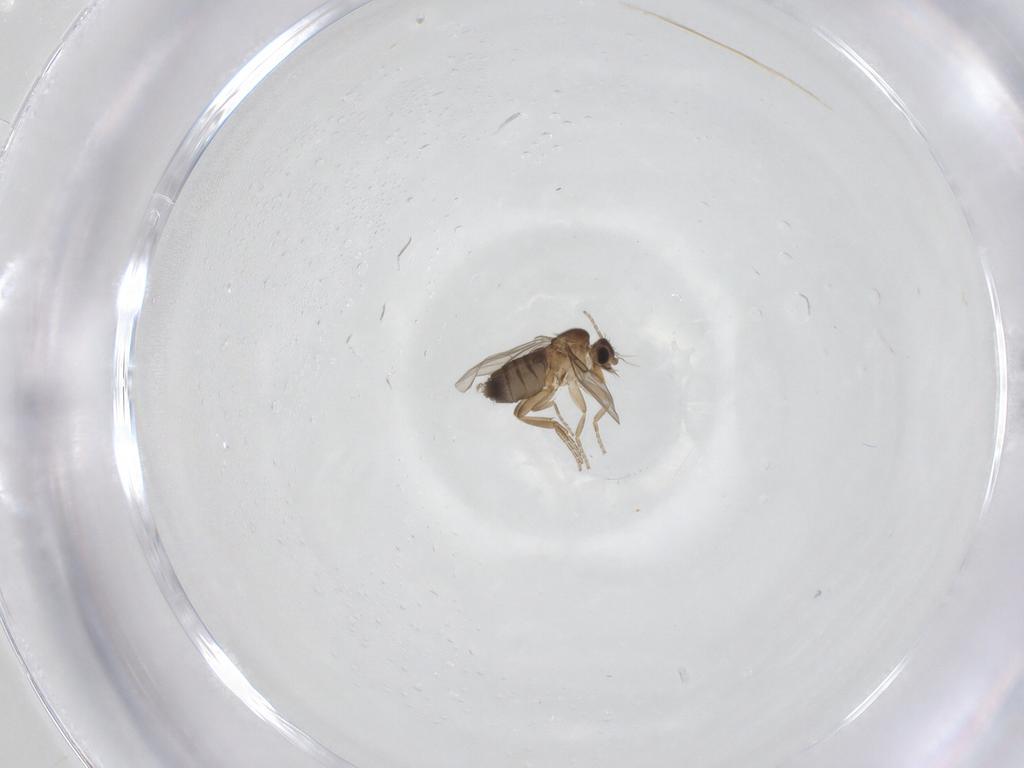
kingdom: Animalia
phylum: Arthropoda
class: Insecta
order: Diptera
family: Phoridae
